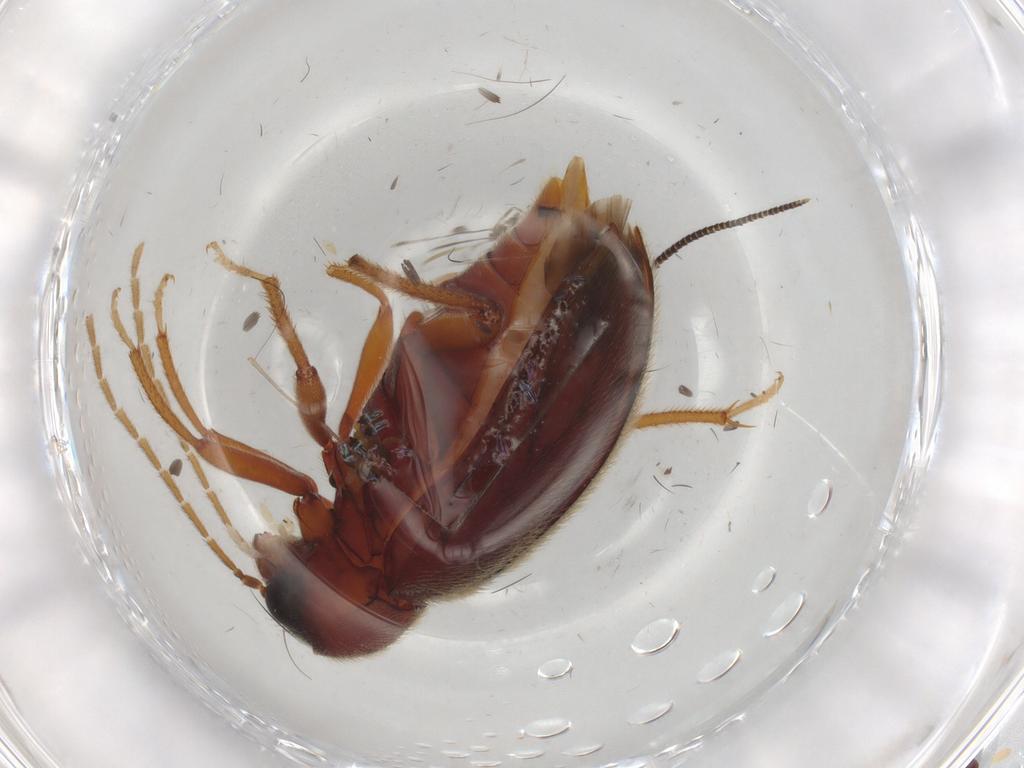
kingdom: Animalia
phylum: Arthropoda
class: Insecta
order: Coleoptera
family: Ptilodactylidae
